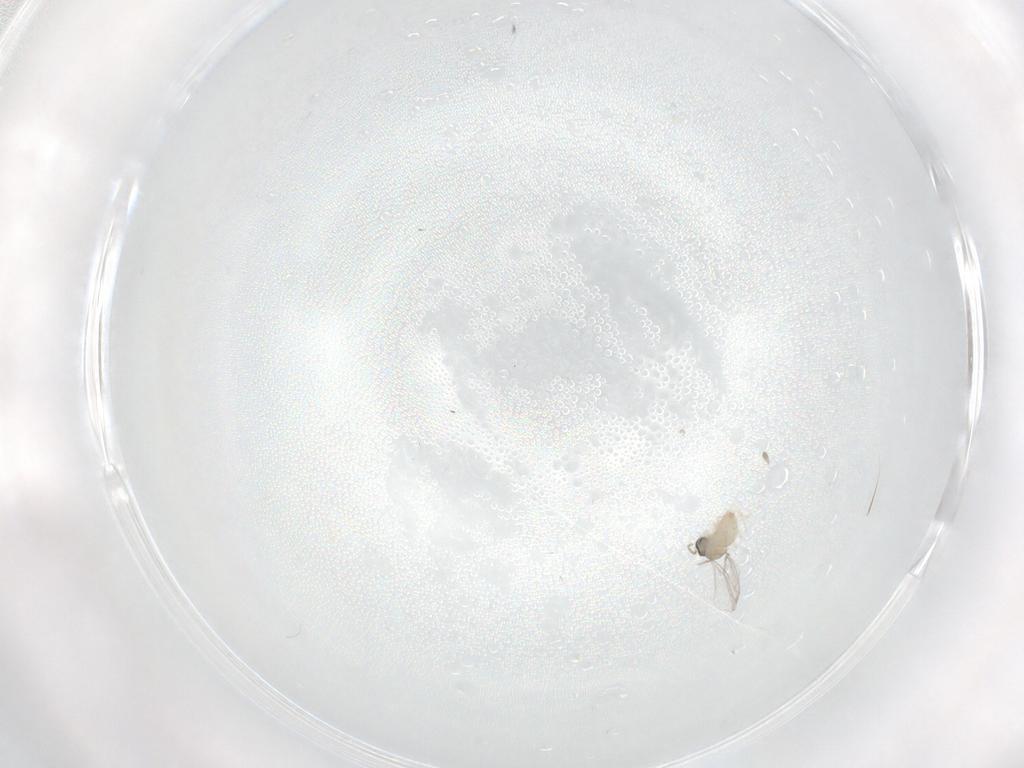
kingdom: Animalia
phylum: Arthropoda
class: Insecta
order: Diptera
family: Cecidomyiidae
